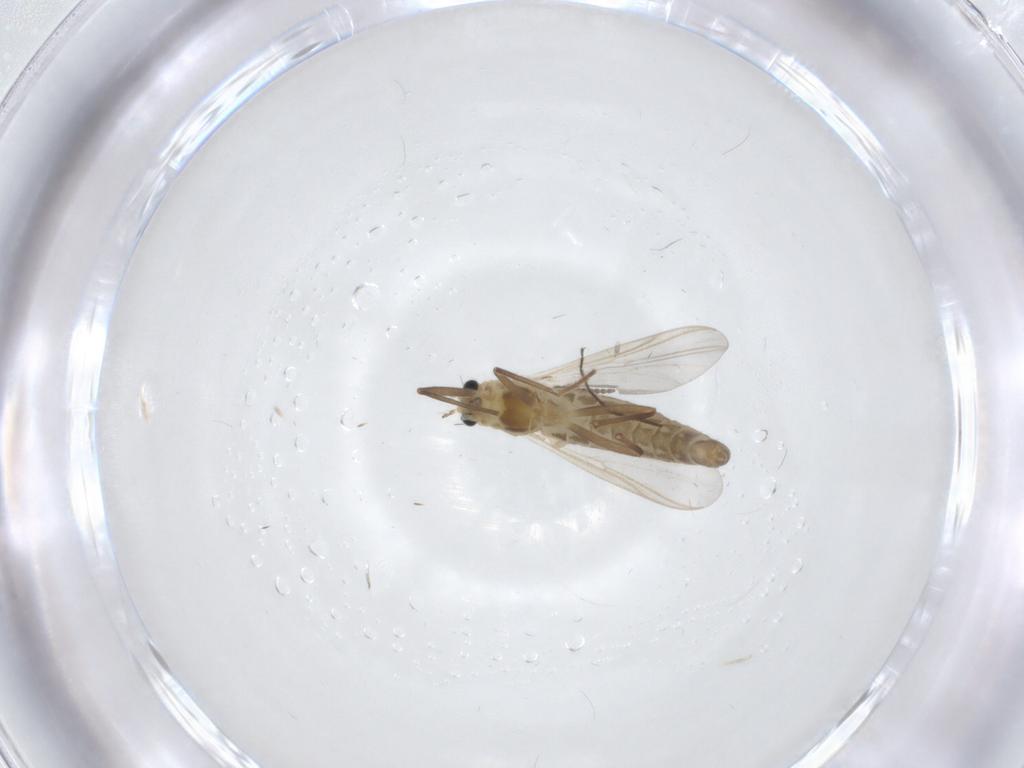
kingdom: Animalia
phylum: Arthropoda
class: Insecta
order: Diptera
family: Chironomidae
